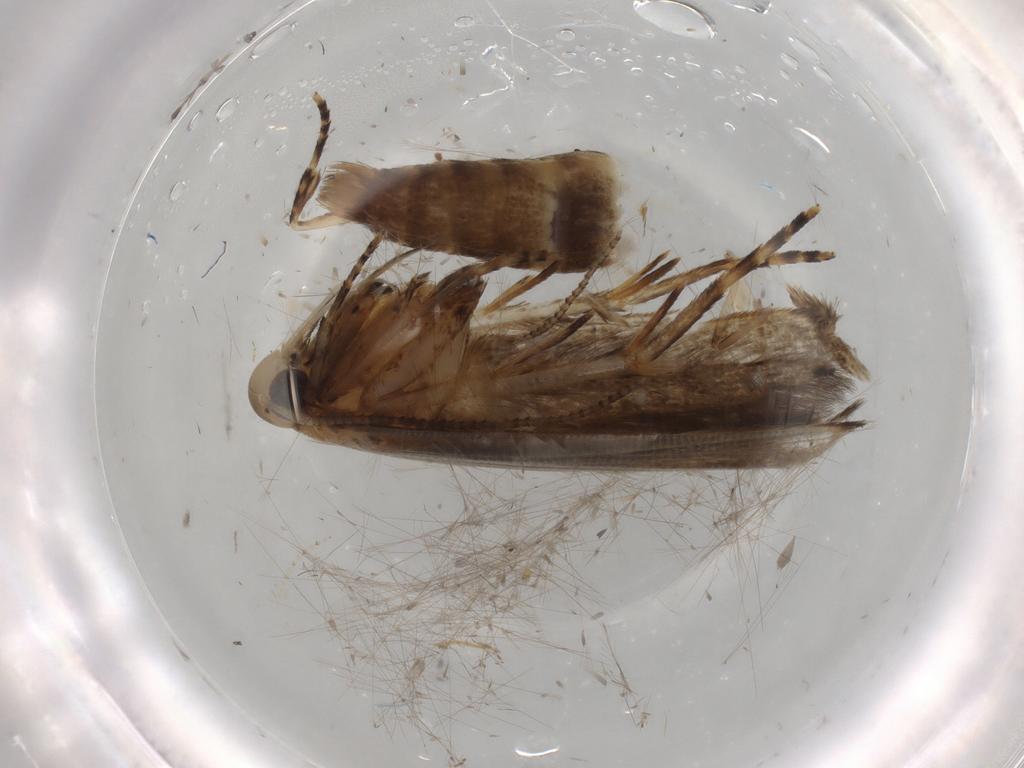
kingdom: Animalia
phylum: Arthropoda
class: Insecta
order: Lepidoptera
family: Cosmopterigidae
